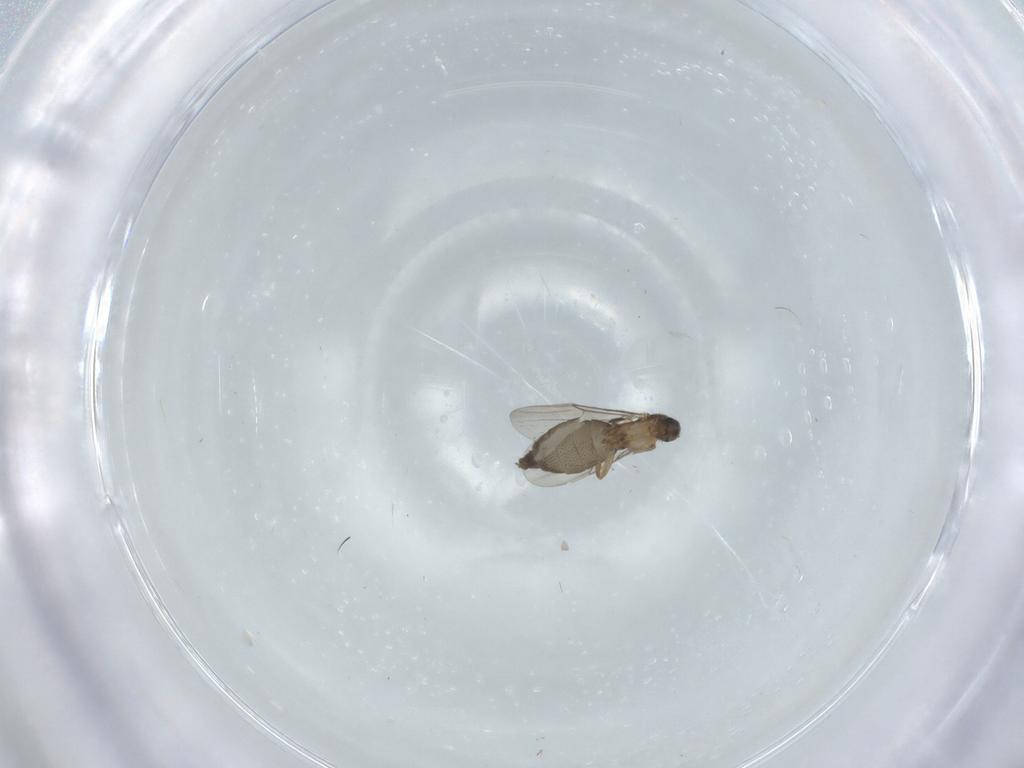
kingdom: Animalia
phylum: Arthropoda
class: Insecta
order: Diptera
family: Phoridae
